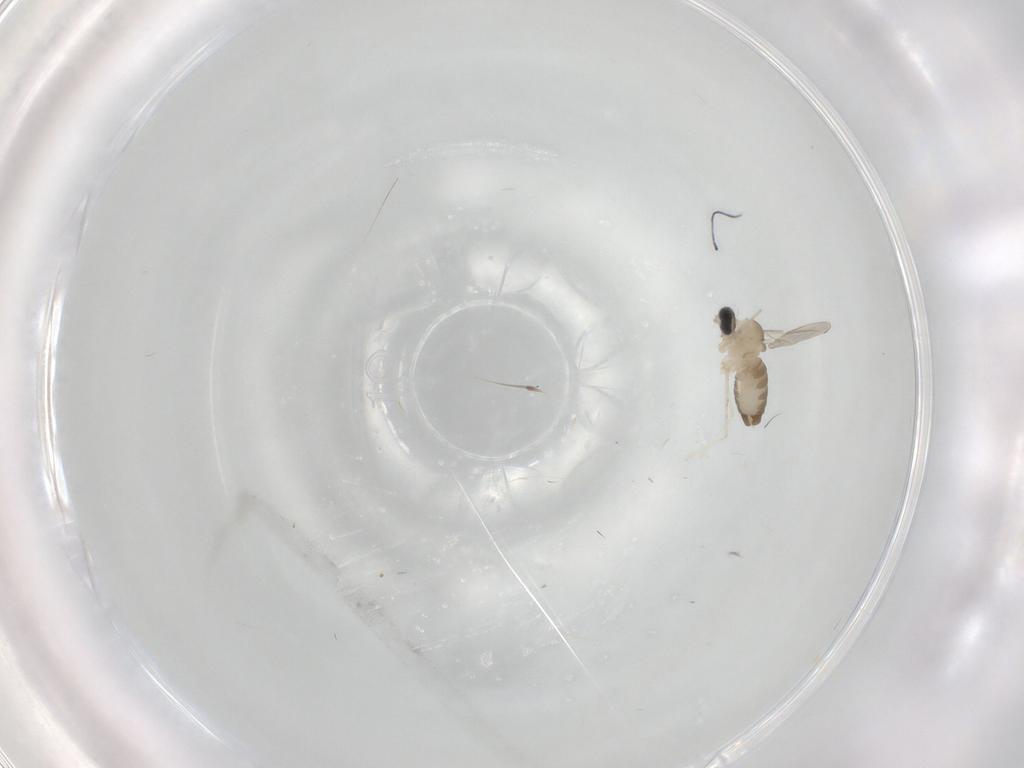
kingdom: Animalia
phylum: Arthropoda
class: Insecta
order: Diptera
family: Cecidomyiidae
